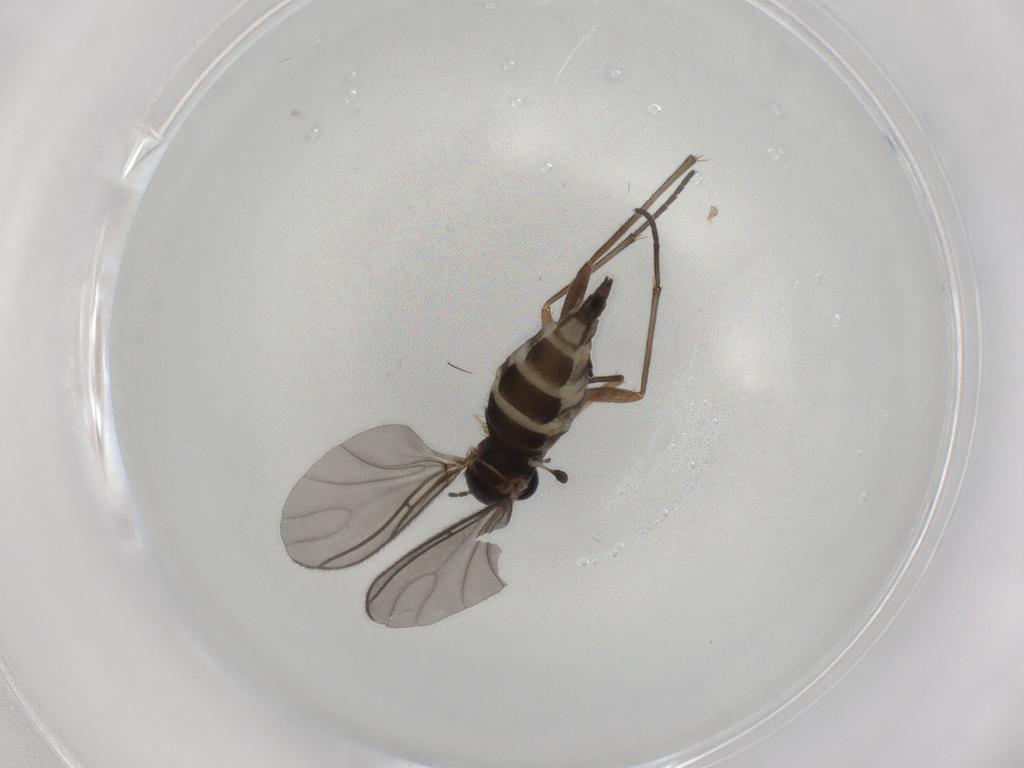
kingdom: Animalia
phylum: Arthropoda
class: Insecta
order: Diptera
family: Sciaridae
